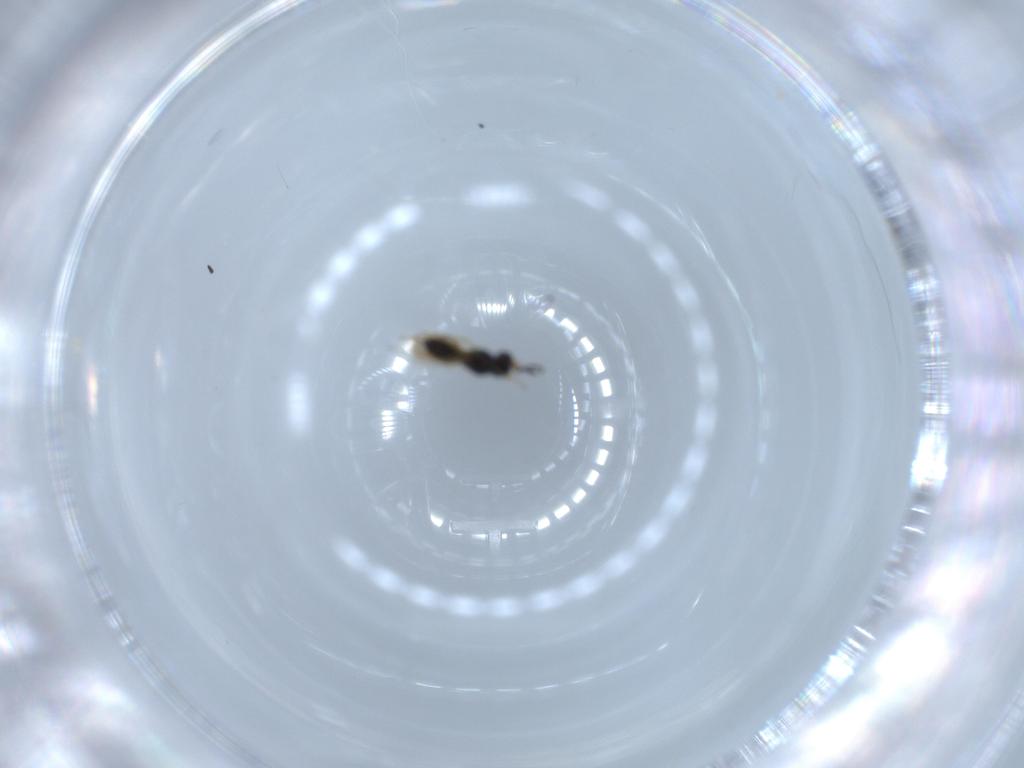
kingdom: Animalia
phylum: Arthropoda
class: Insecta
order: Hymenoptera
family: Scelionidae
